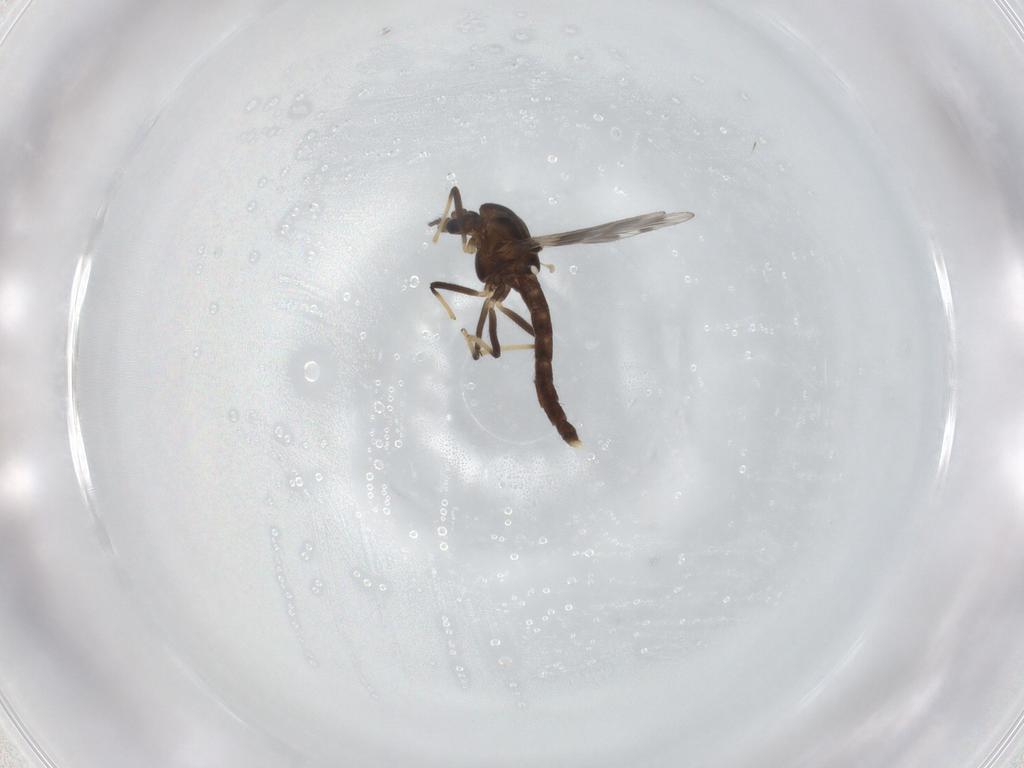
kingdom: Animalia
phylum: Arthropoda
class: Insecta
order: Diptera
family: Chironomidae
